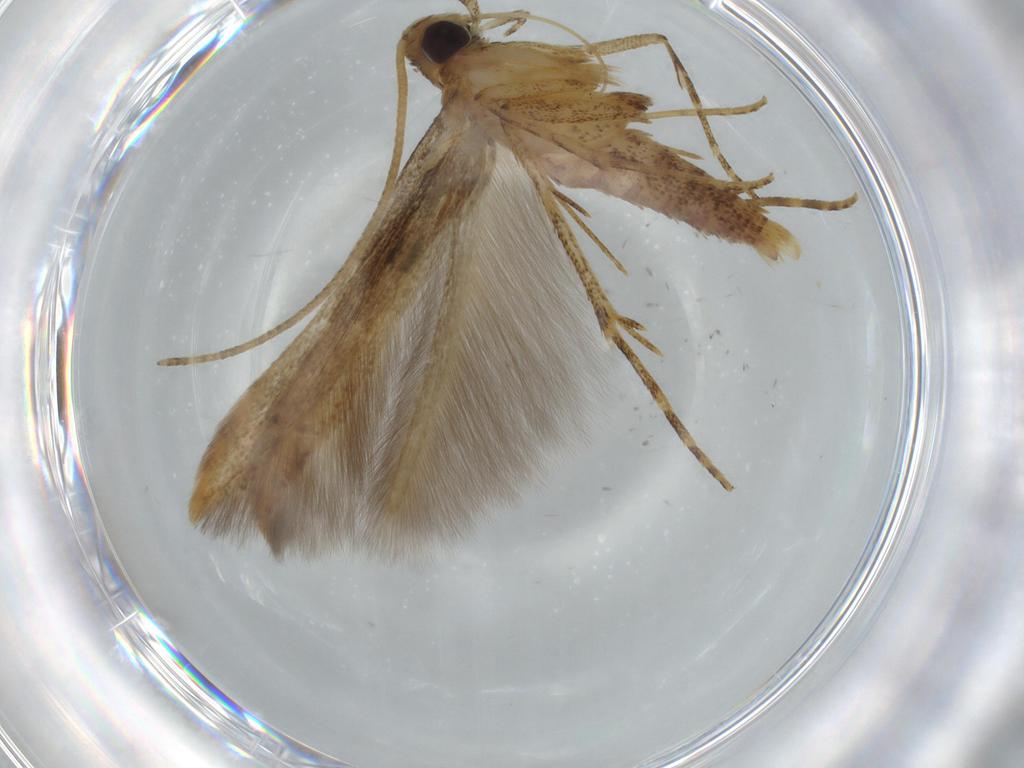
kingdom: Animalia
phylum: Arthropoda
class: Insecta
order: Lepidoptera
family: Batrachedridae
